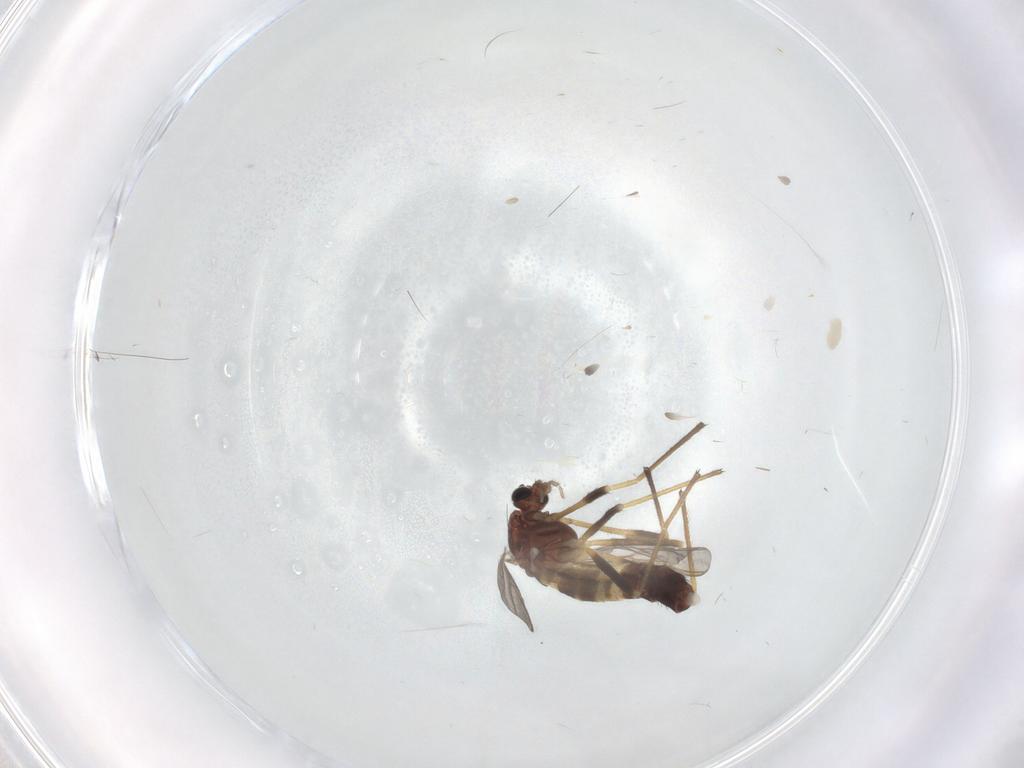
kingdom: Animalia
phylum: Arthropoda
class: Insecta
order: Diptera
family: Chironomidae
